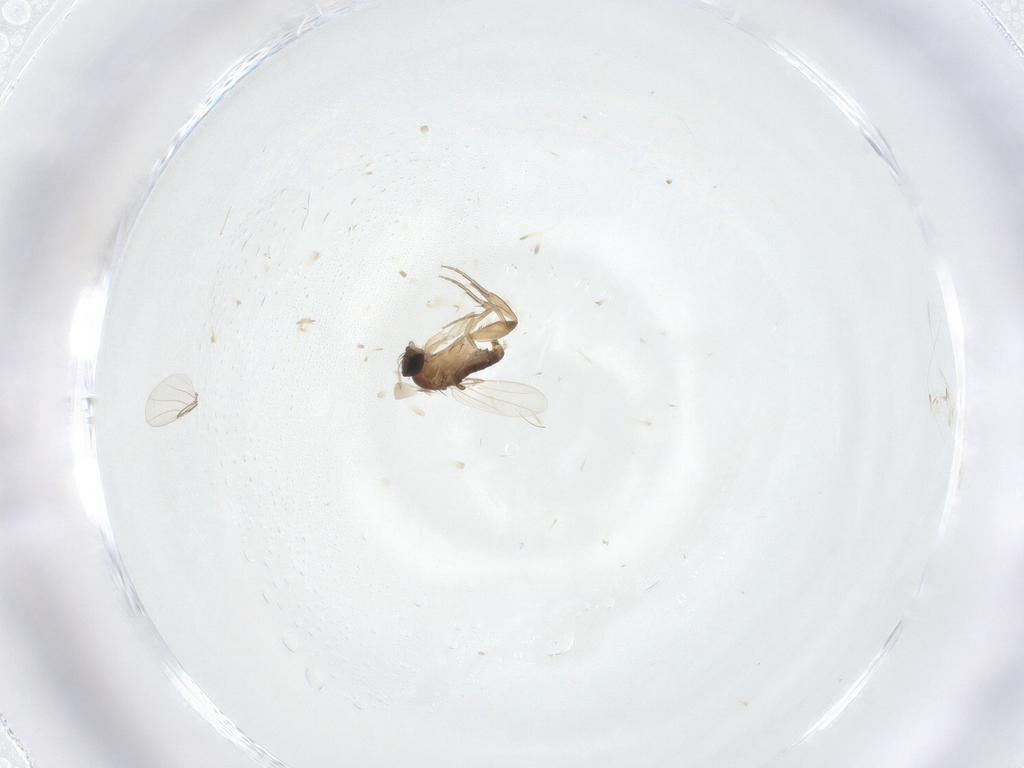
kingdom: Animalia
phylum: Arthropoda
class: Insecta
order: Diptera
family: Phoridae
